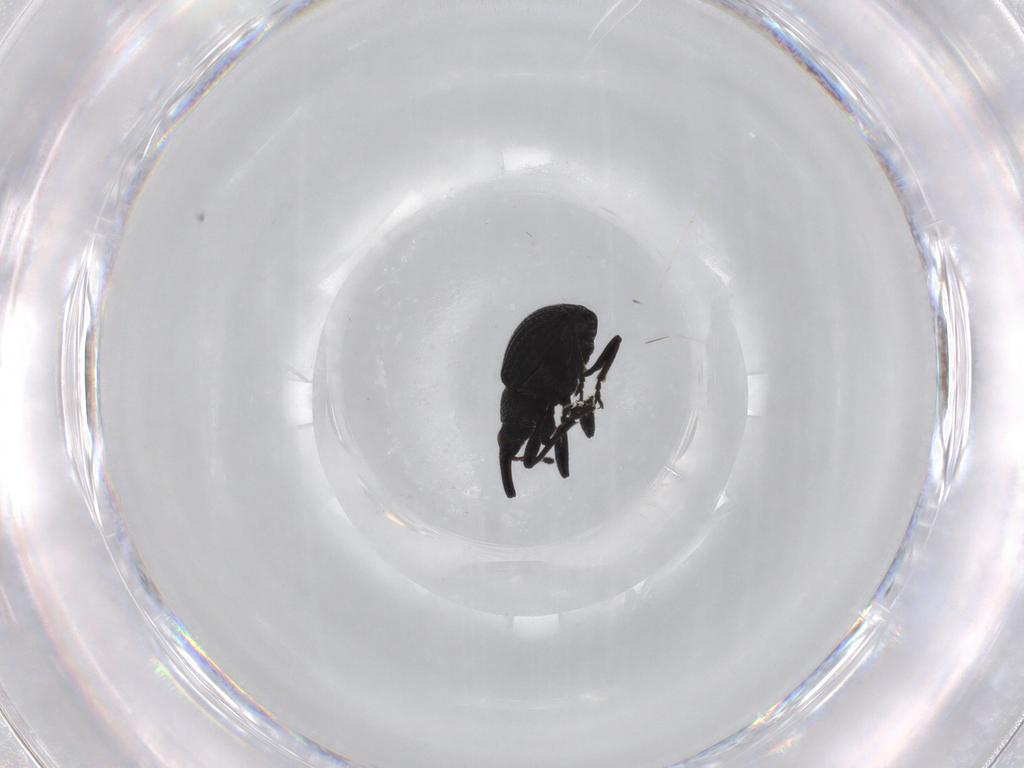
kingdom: Animalia
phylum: Arthropoda
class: Insecta
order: Coleoptera
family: Brentidae
